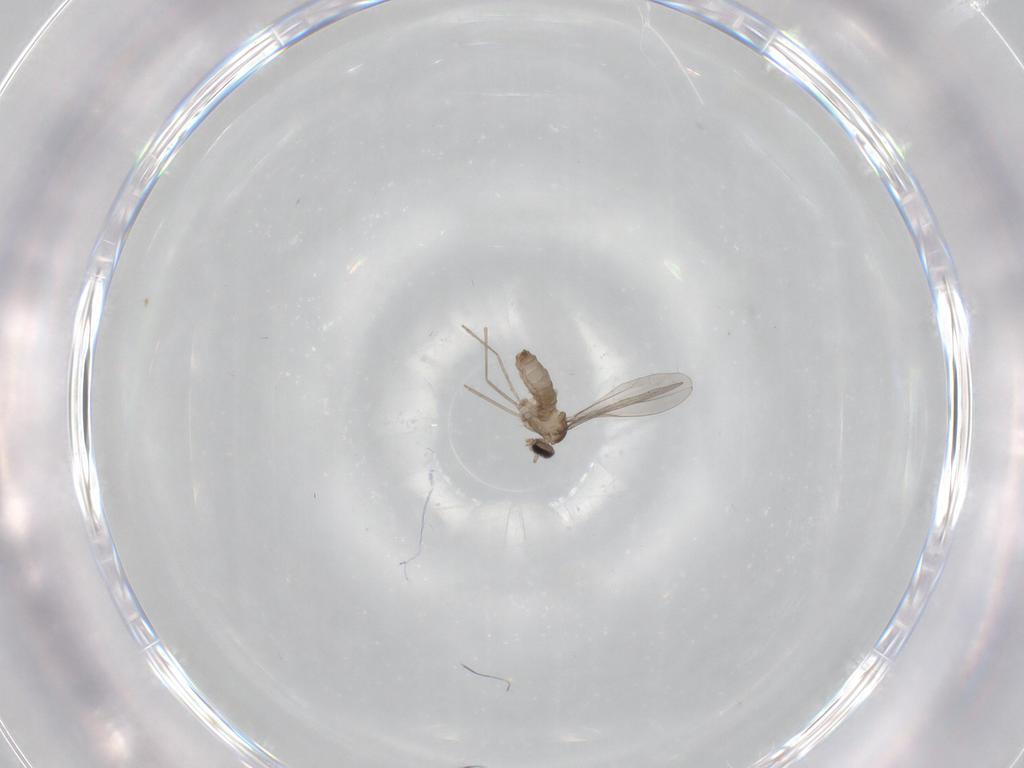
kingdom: Animalia
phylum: Arthropoda
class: Insecta
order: Diptera
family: Cecidomyiidae
